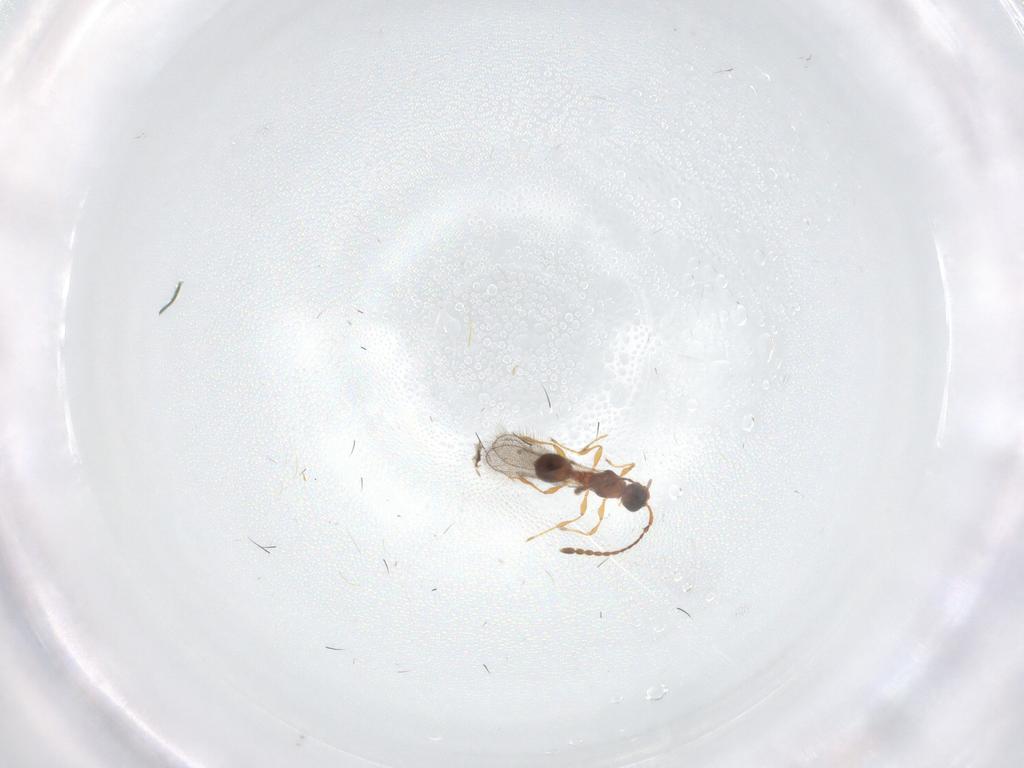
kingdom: Animalia
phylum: Arthropoda
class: Insecta
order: Hymenoptera
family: Diapriidae
